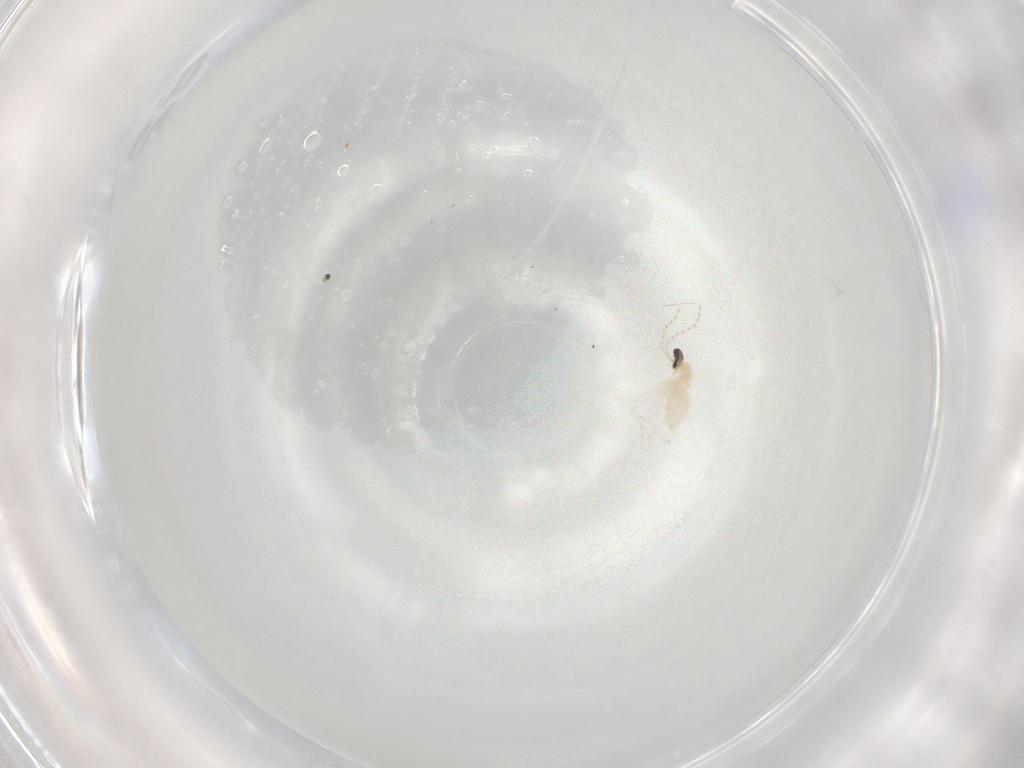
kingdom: Animalia
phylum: Arthropoda
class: Insecta
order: Diptera
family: Cecidomyiidae
